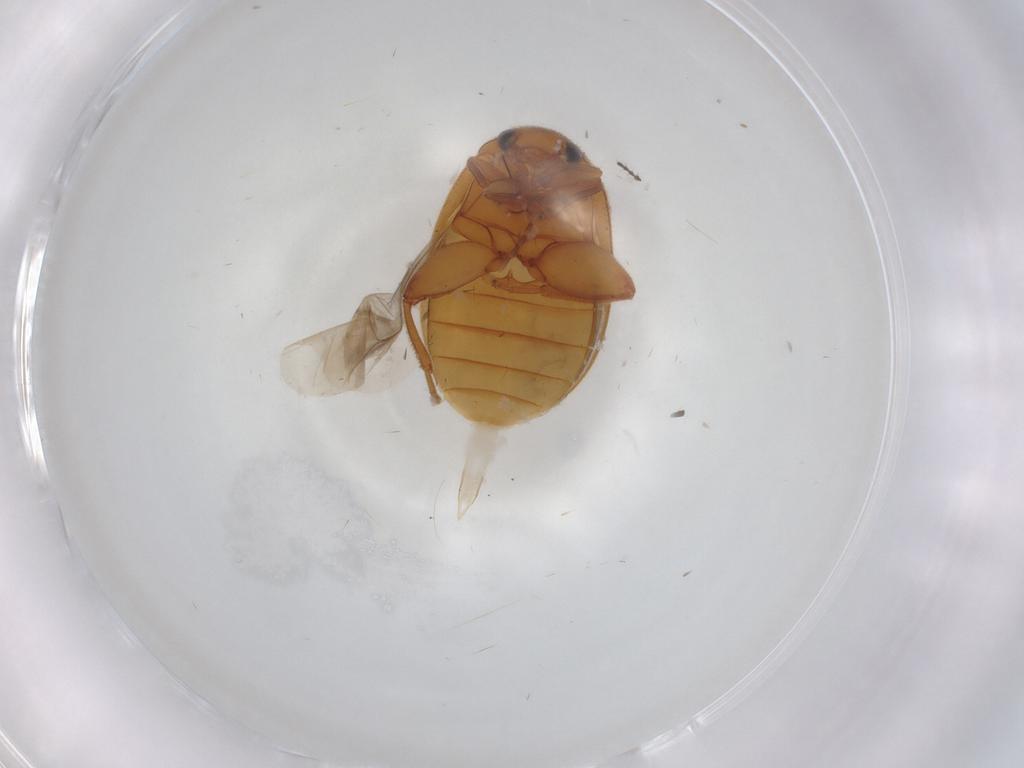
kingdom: Animalia
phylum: Arthropoda
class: Insecta
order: Coleoptera
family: Scirtidae
